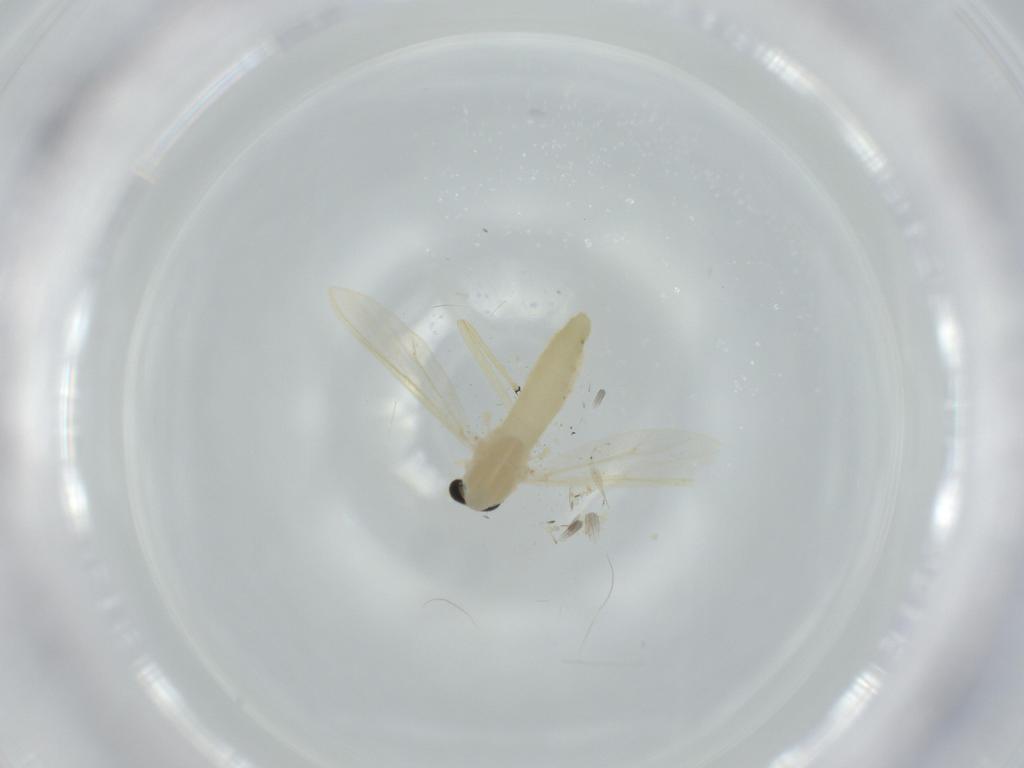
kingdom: Animalia
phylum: Arthropoda
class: Insecta
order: Diptera
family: Chironomidae
